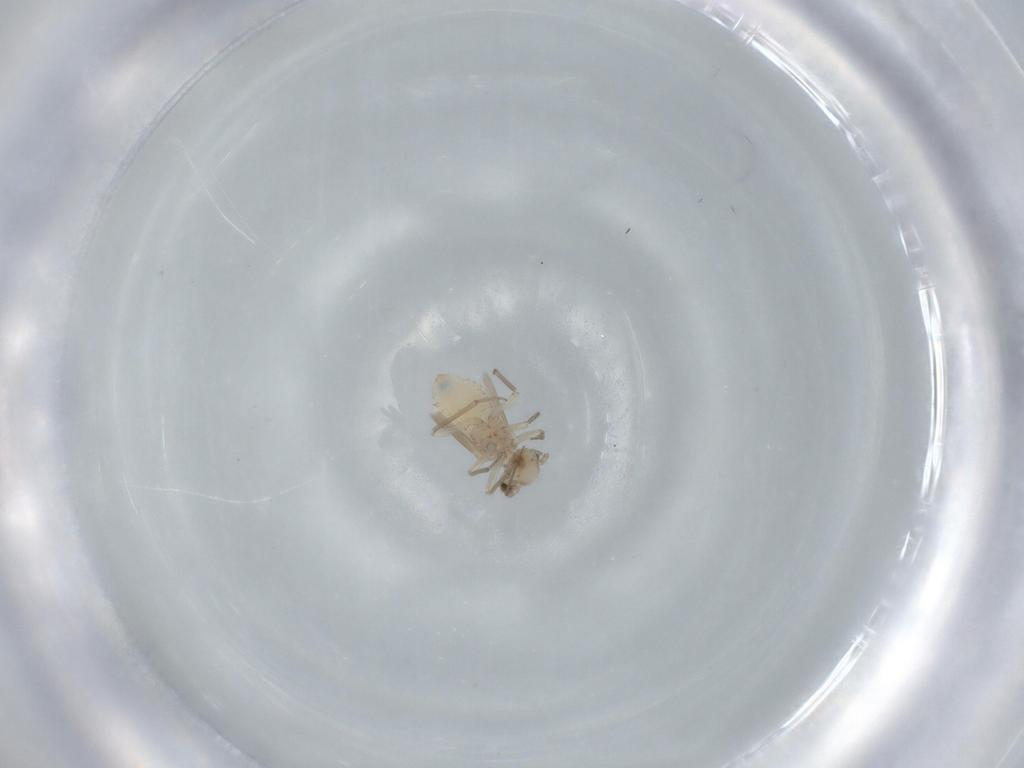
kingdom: Animalia
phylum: Arthropoda
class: Insecta
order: Psocodea
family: Lachesillidae
